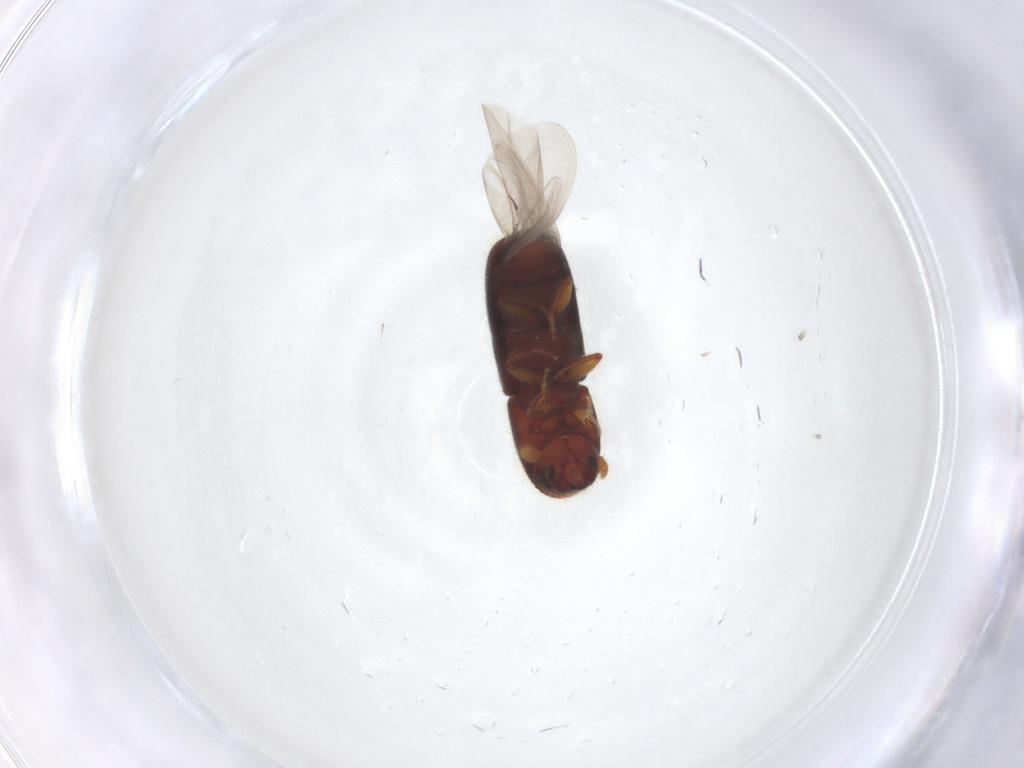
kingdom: Animalia
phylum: Arthropoda
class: Insecta
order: Coleoptera
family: Curculionidae
